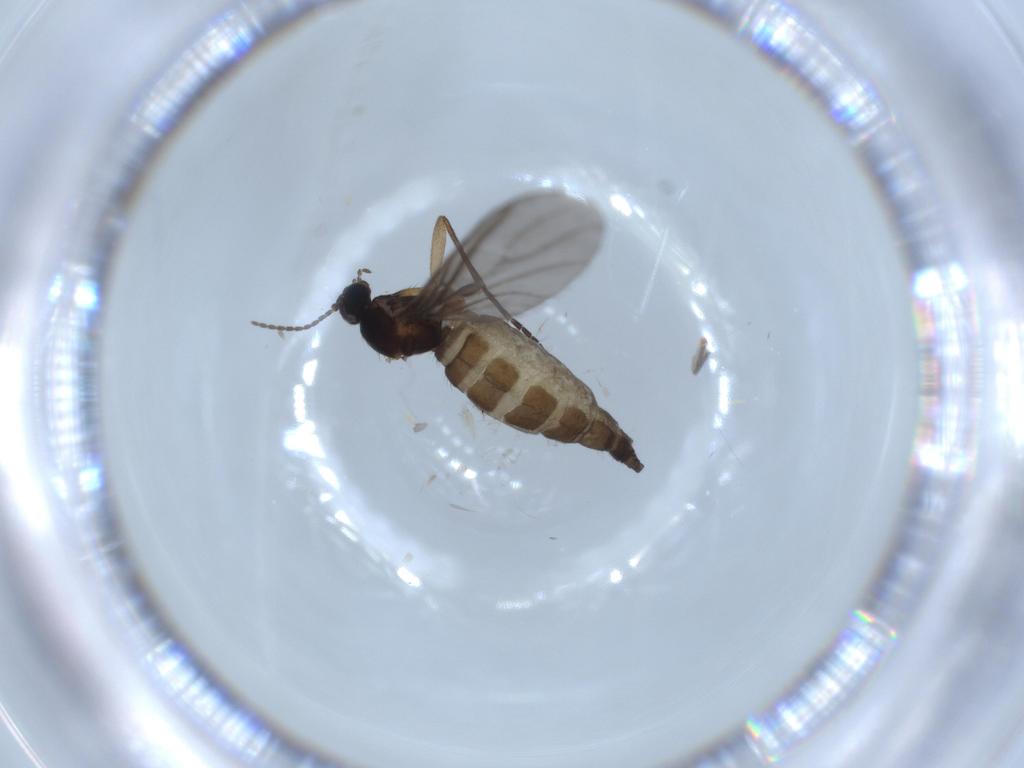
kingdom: Animalia
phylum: Arthropoda
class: Insecta
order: Diptera
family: Sciaridae
